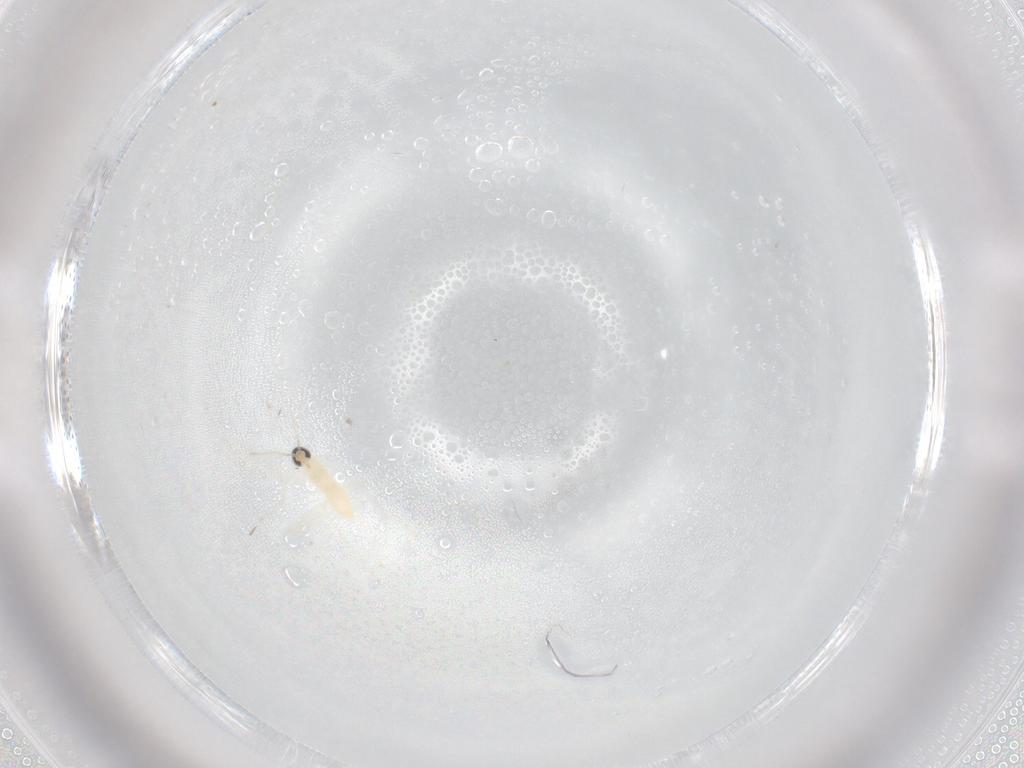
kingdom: Animalia
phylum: Arthropoda
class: Insecta
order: Diptera
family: Cecidomyiidae
